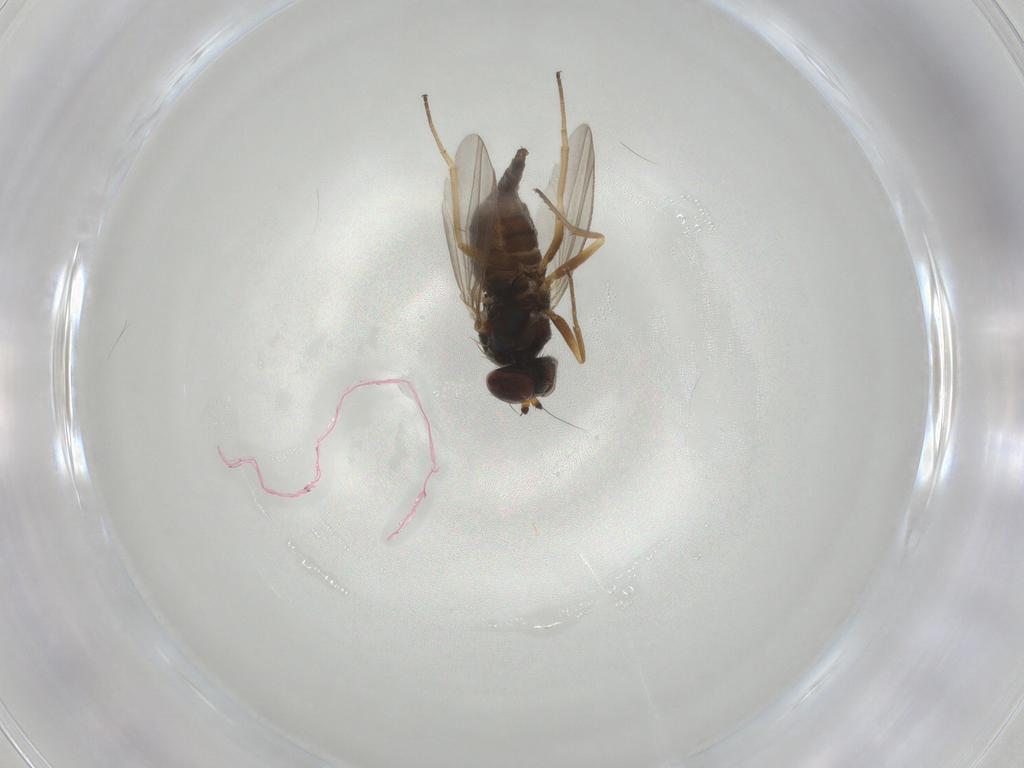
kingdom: Animalia
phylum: Arthropoda
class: Insecta
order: Diptera
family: Dolichopodidae
